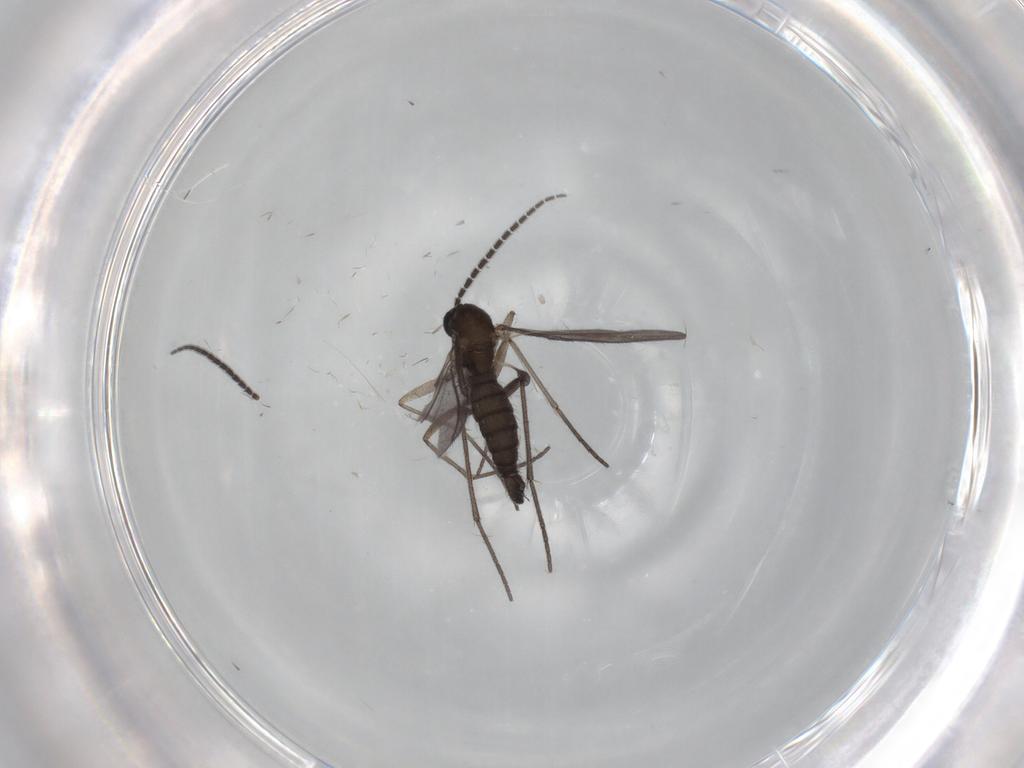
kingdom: Animalia
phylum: Arthropoda
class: Insecta
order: Diptera
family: Sciaridae
